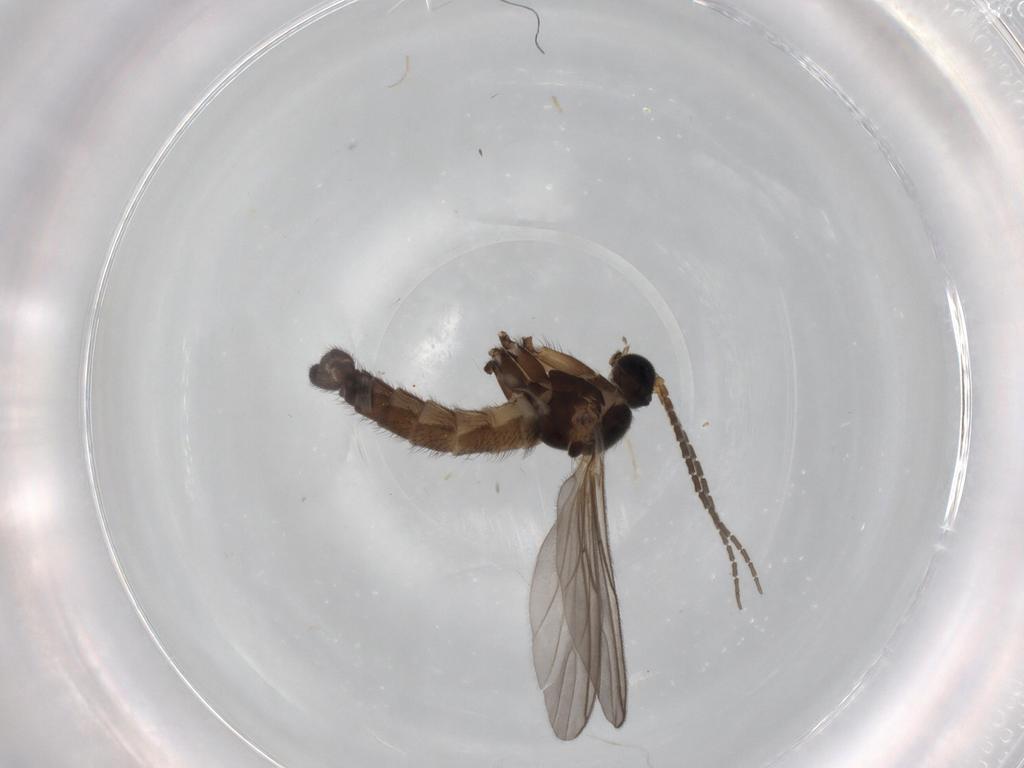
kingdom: Animalia
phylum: Arthropoda
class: Insecta
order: Diptera
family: Sciaridae
